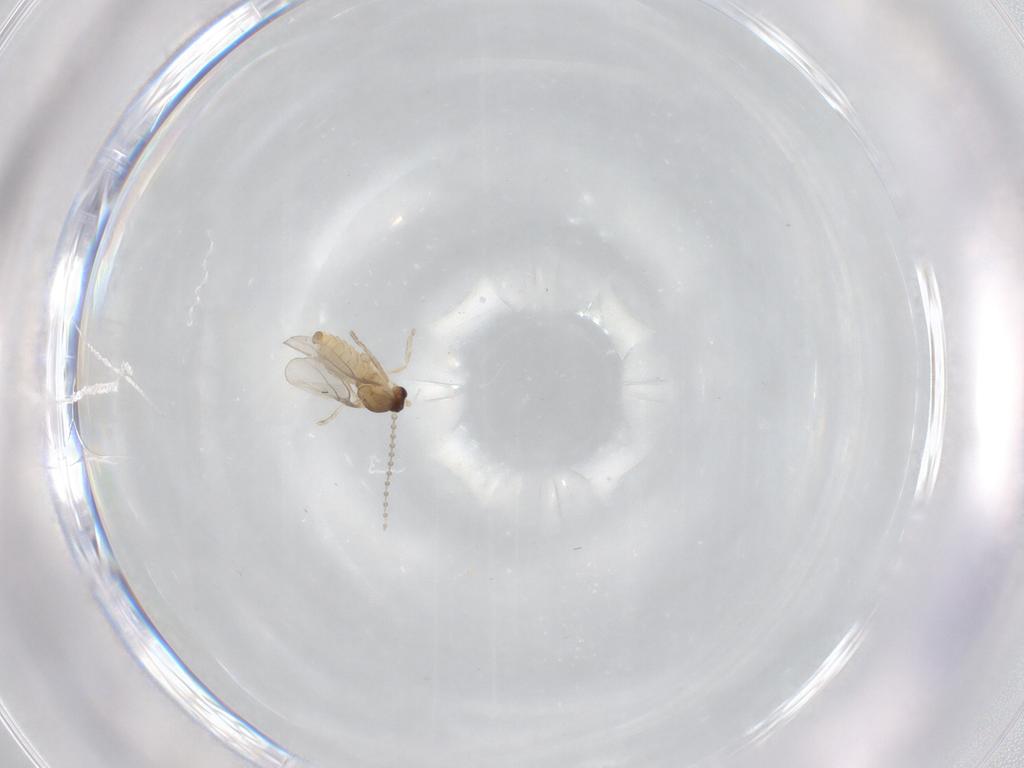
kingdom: Animalia
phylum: Arthropoda
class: Insecta
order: Diptera
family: Cecidomyiidae
